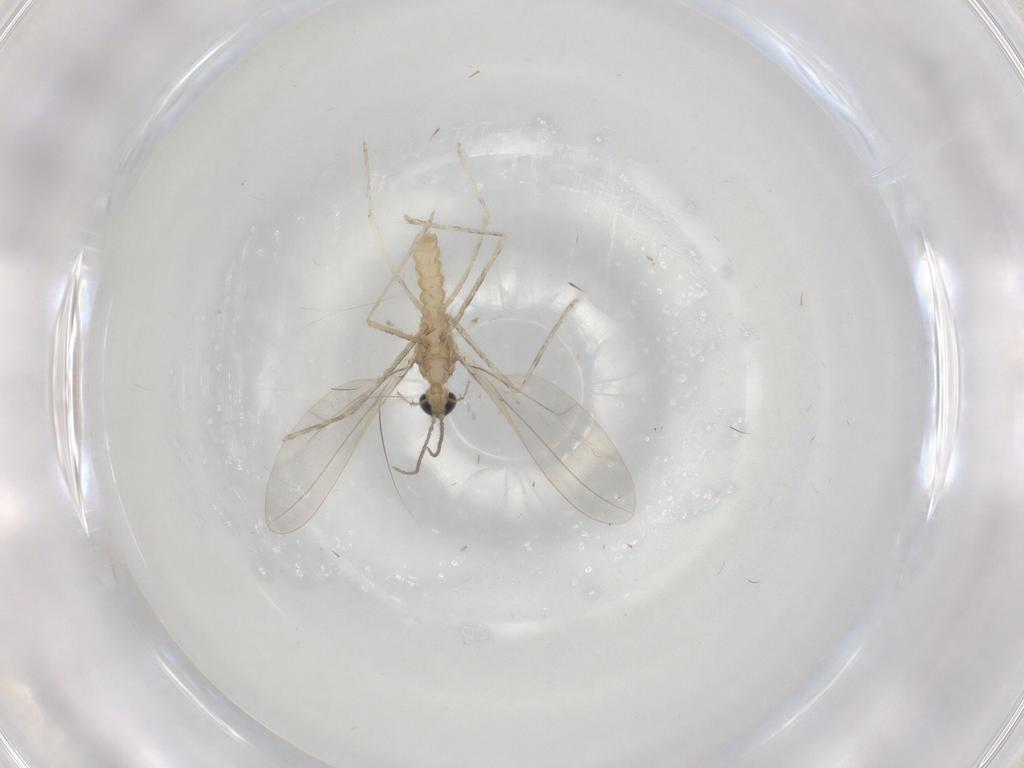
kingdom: Animalia
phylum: Arthropoda
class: Insecta
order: Diptera
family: Cecidomyiidae
